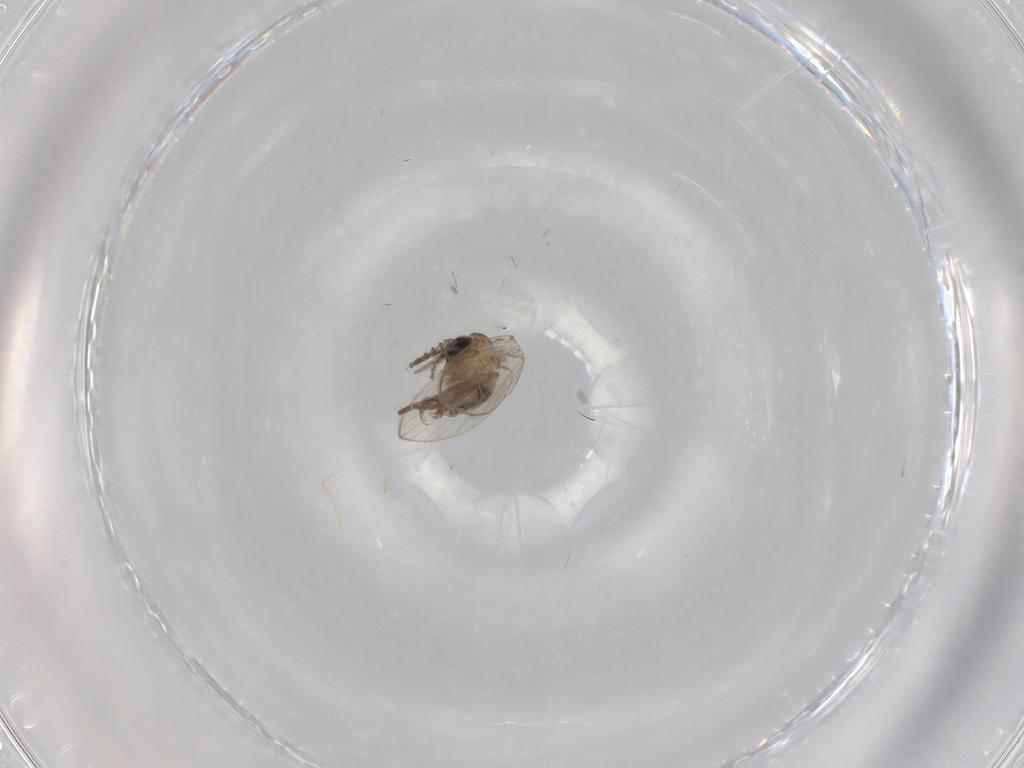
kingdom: Animalia
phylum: Arthropoda
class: Insecta
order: Diptera
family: Psychodidae
